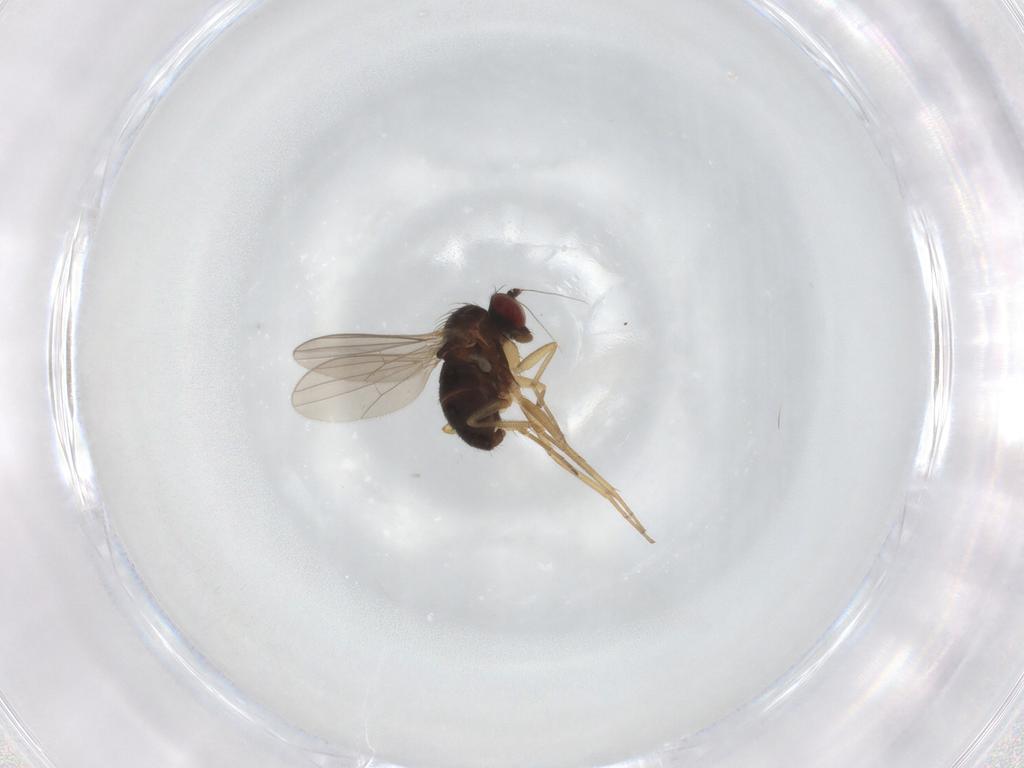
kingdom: Animalia
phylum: Arthropoda
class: Insecta
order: Diptera
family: Dolichopodidae
